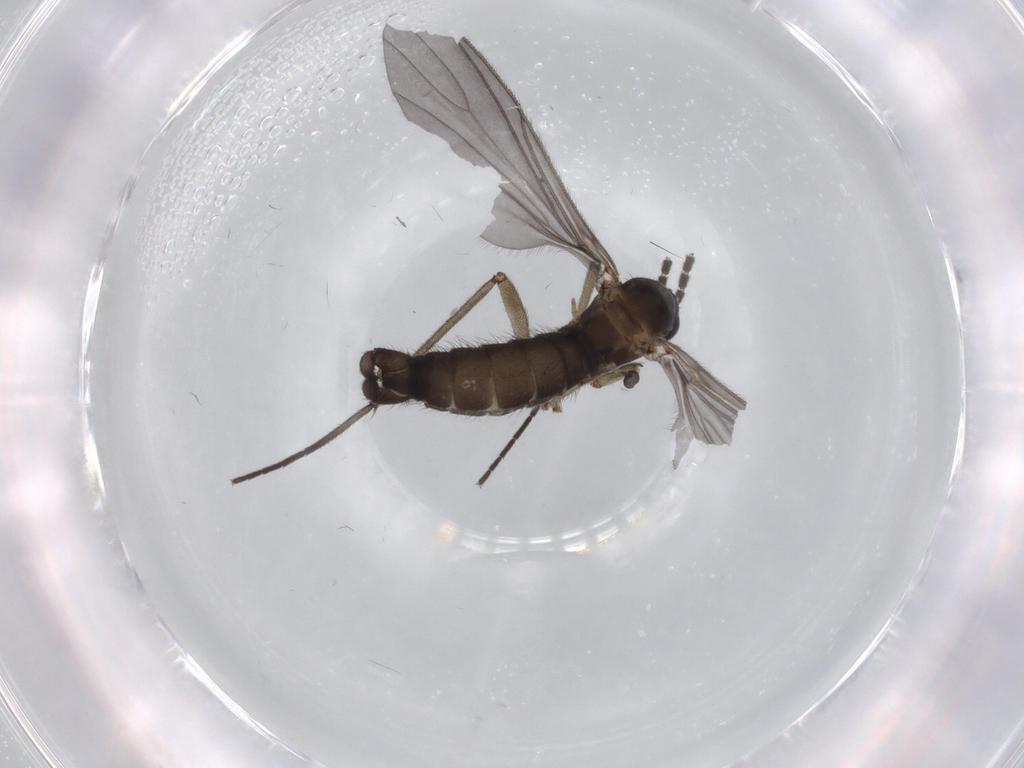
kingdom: Animalia
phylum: Arthropoda
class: Insecta
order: Diptera
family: Sciaridae
